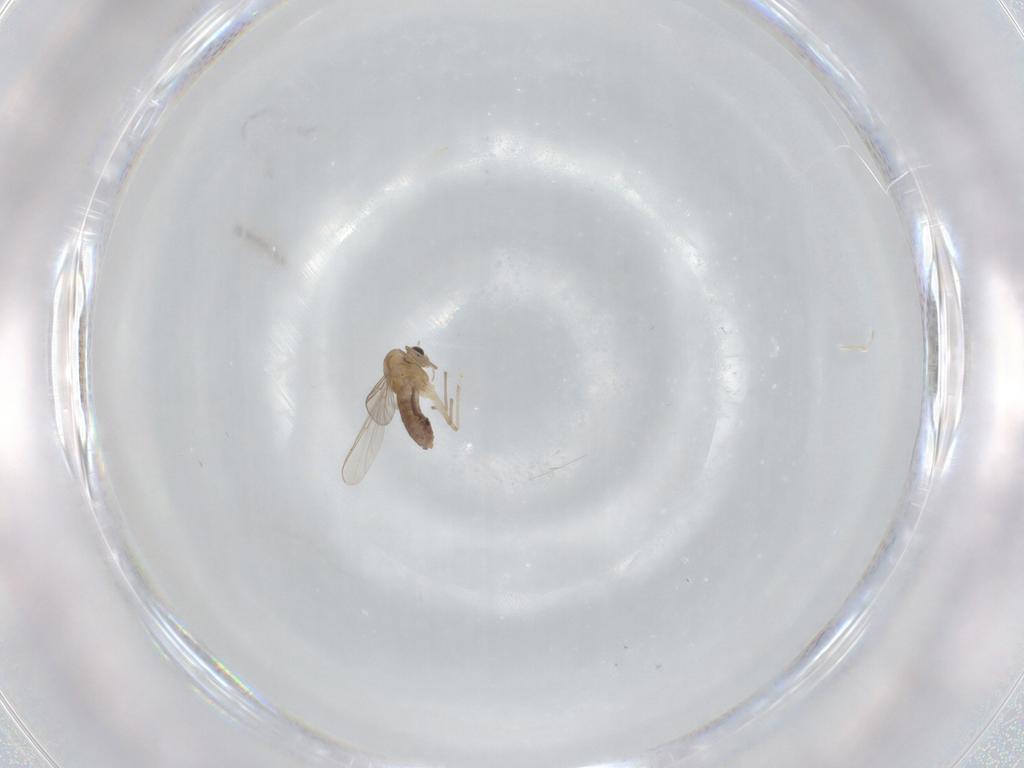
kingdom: Animalia
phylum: Arthropoda
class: Insecta
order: Diptera
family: Chironomidae
